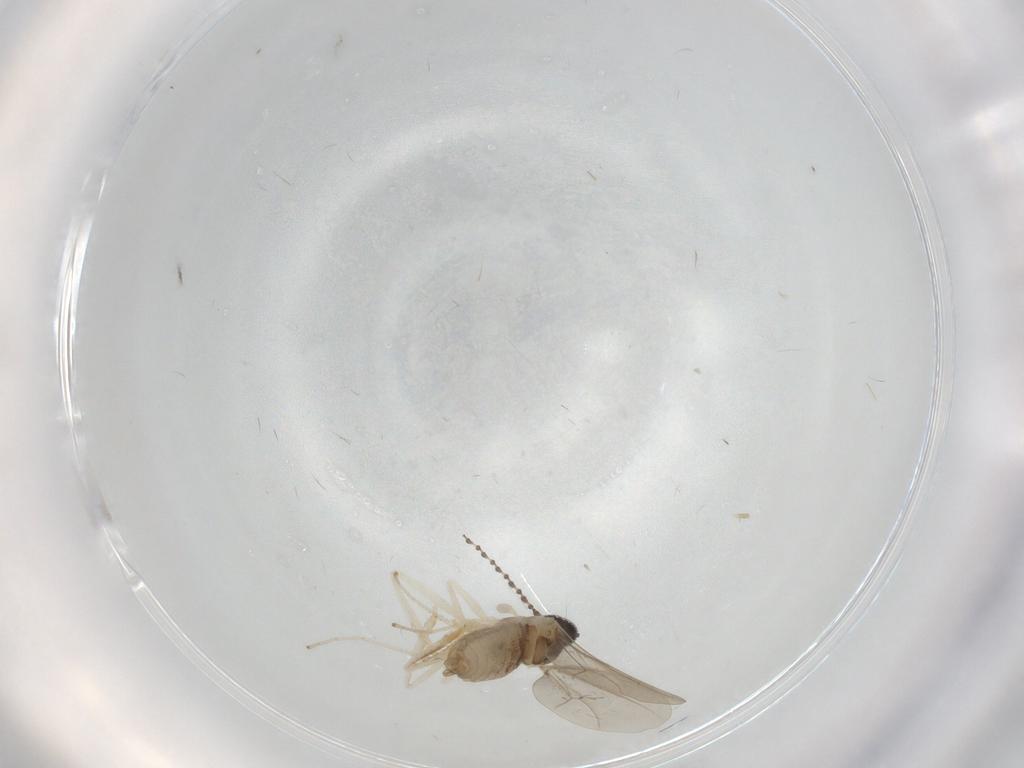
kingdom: Animalia
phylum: Arthropoda
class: Insecta
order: Diptera
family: Cecidomyiidae
